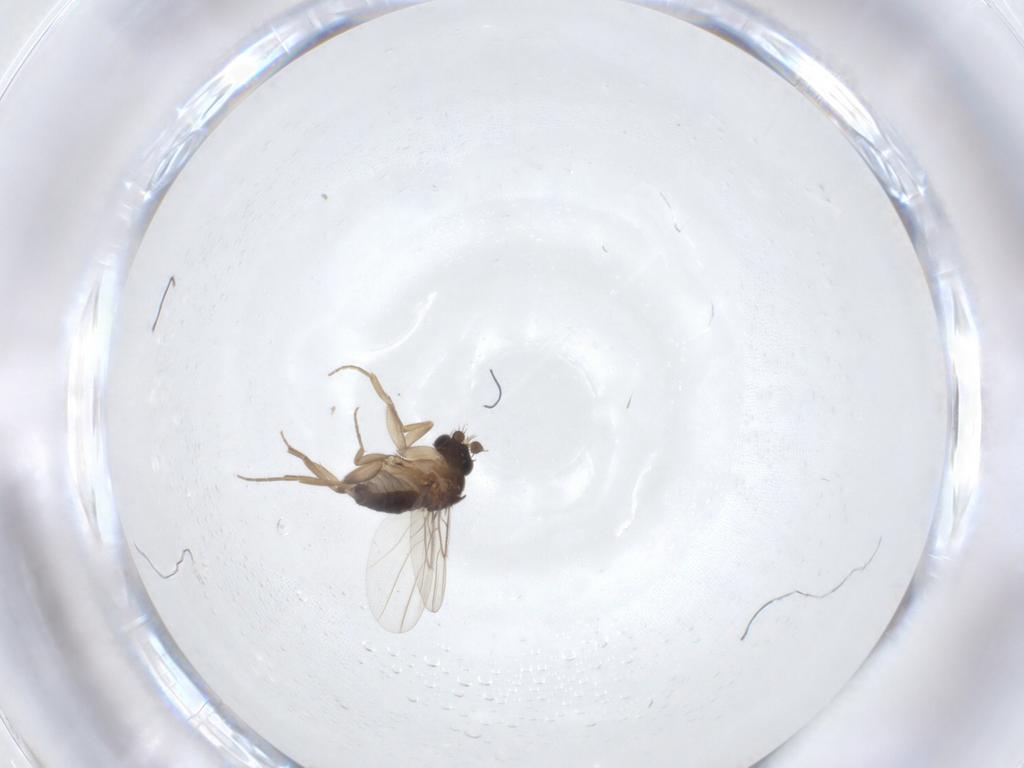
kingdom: Animalia
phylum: Arthropoda
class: Insecta
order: Diptera
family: Phoridae
